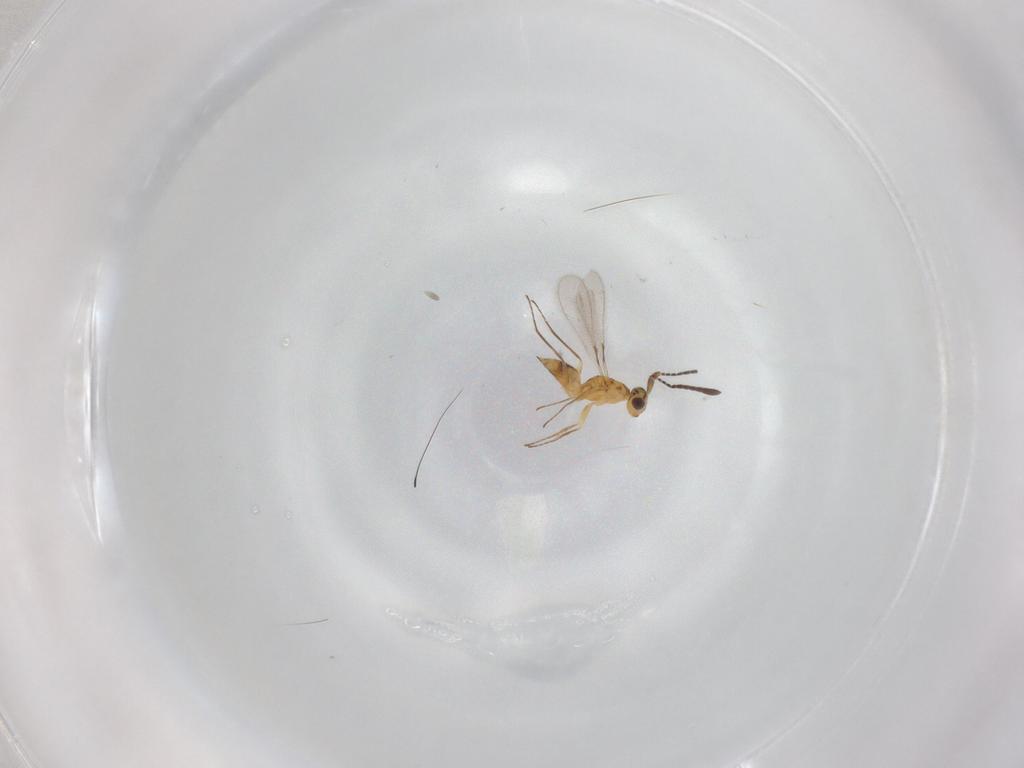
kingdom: Animalia
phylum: Arthropoda
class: Insecta
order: Hymenoptera
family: Mymaridae
